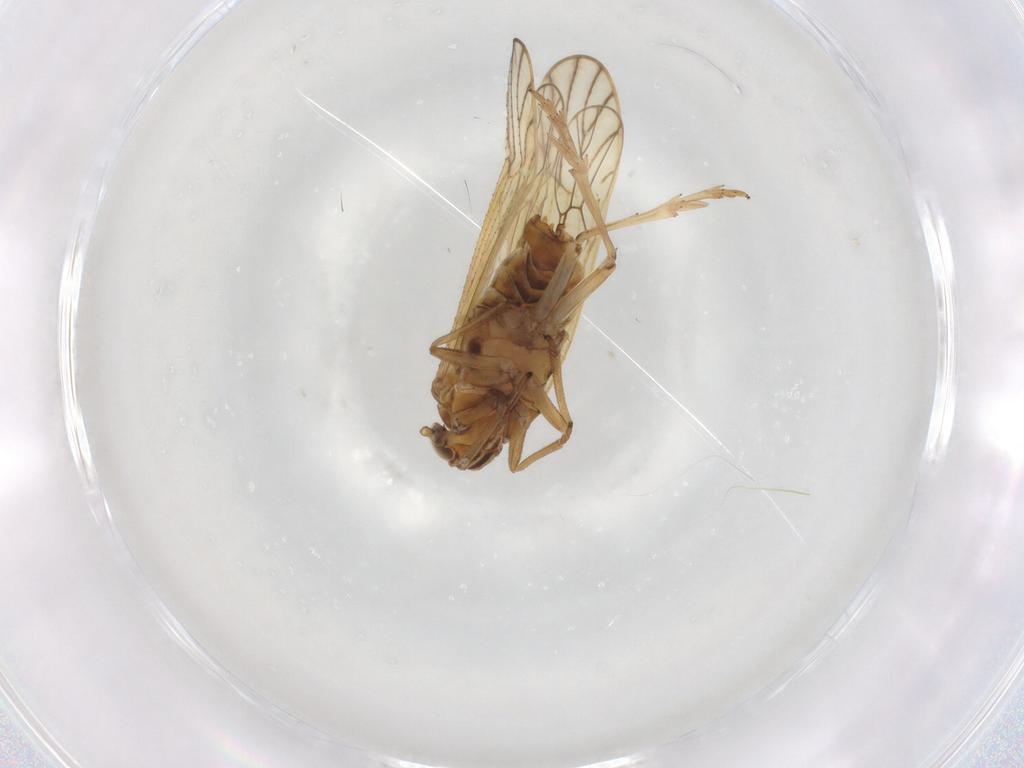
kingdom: Animalia
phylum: Arthropoda
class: Insecta
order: Hemiptera
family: Delphacidae
